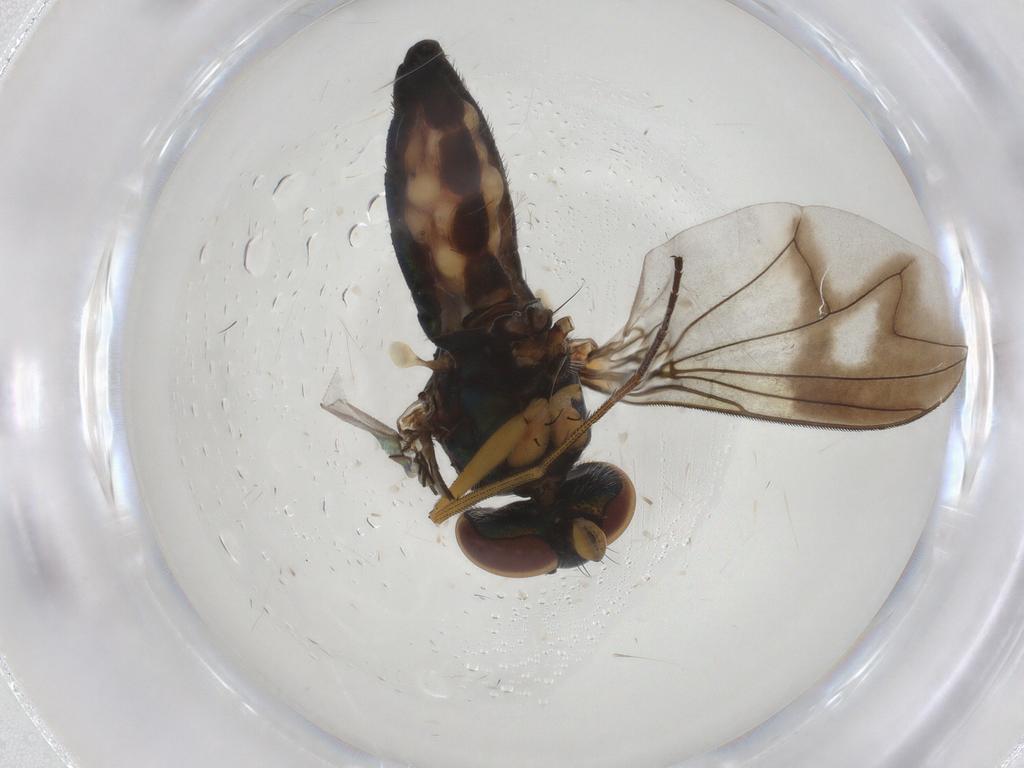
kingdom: Animalia
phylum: Arthropoda
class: Insecta
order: Diptera
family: Dolichopodidae
